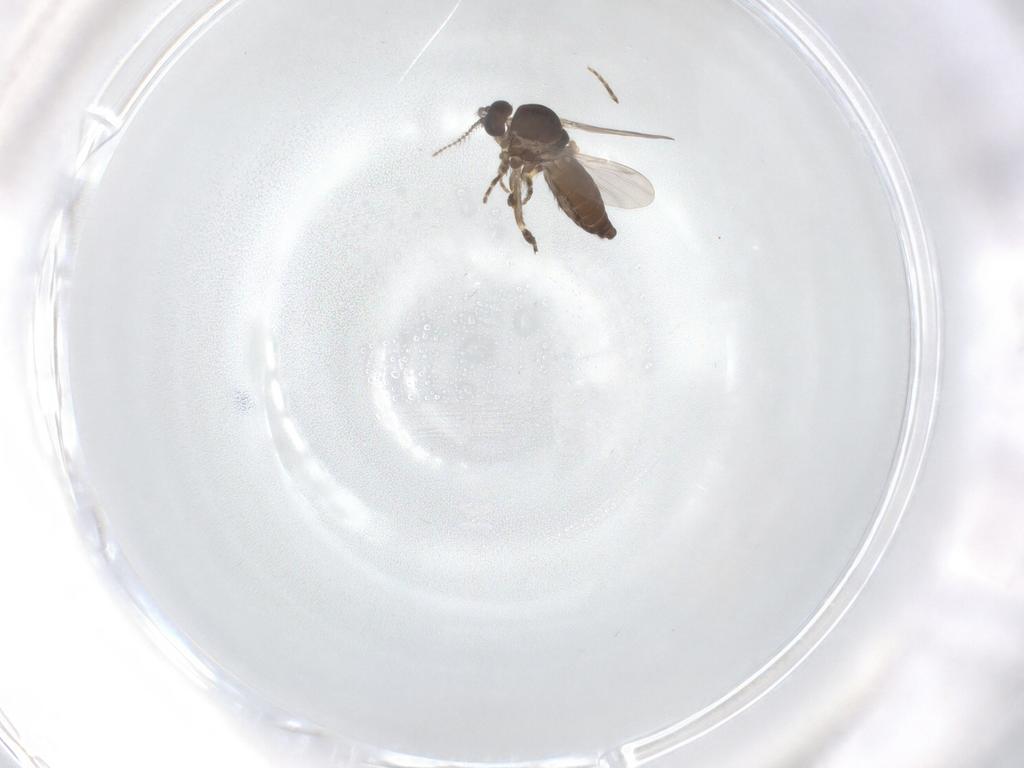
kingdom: Animalia
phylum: Arthropoda
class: Insecta
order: Diptera
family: Ceratopogonidae
